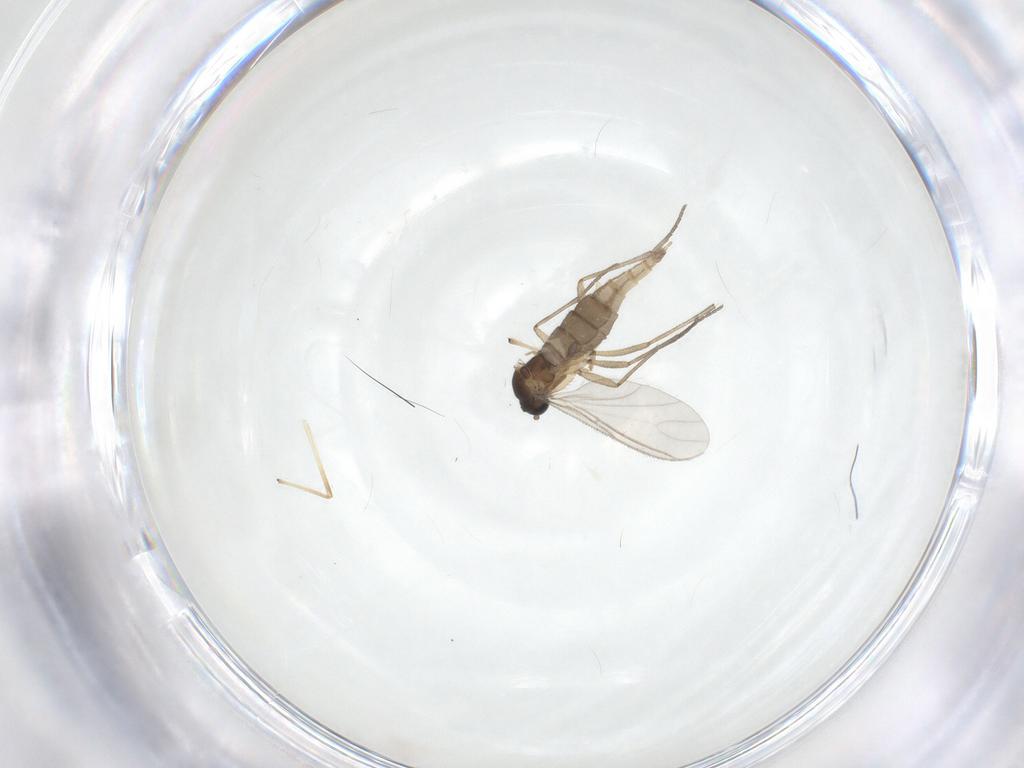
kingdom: Animalia
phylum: Arthropoda
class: Insecta
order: Diptera
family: Sciaridae
